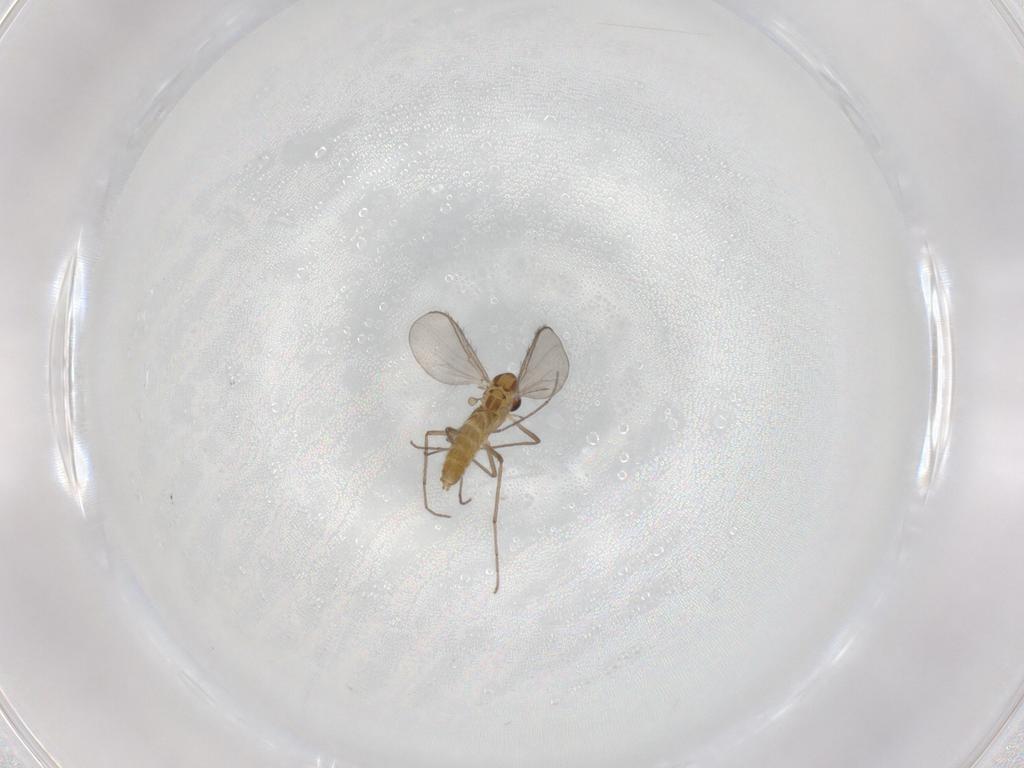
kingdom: Animalia
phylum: Arthropoda
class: Insecta
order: Diptera
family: Chironomidae
